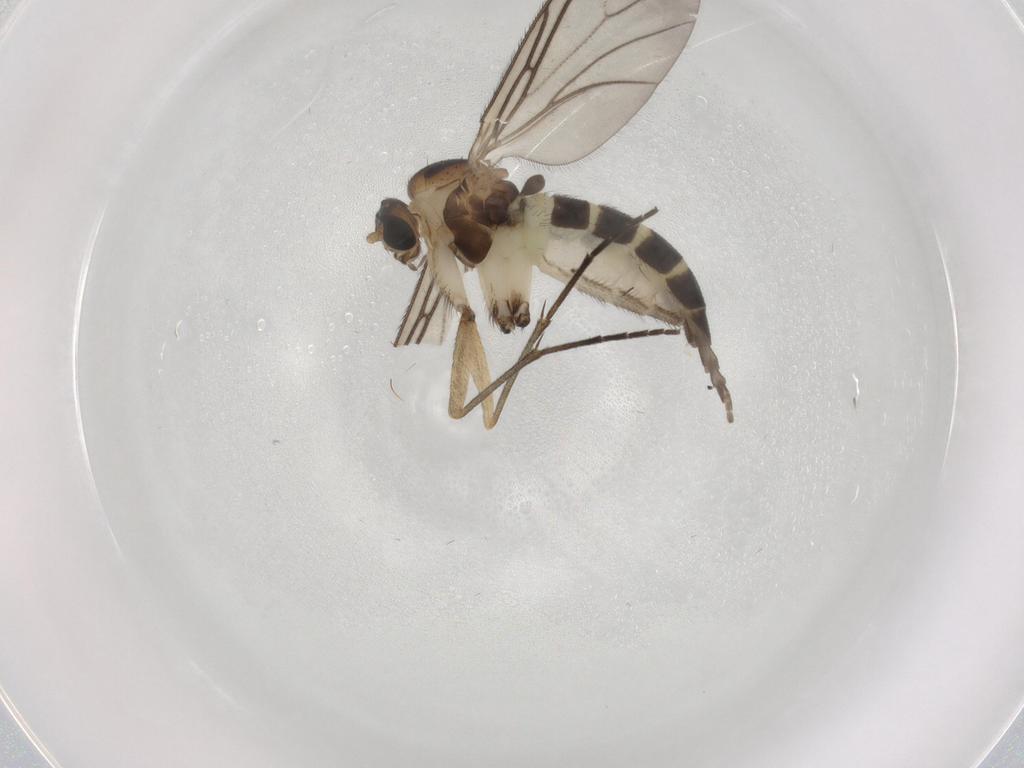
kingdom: Animalia
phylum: Arthropoda
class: Insecta
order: Diptera
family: Sciaridae
